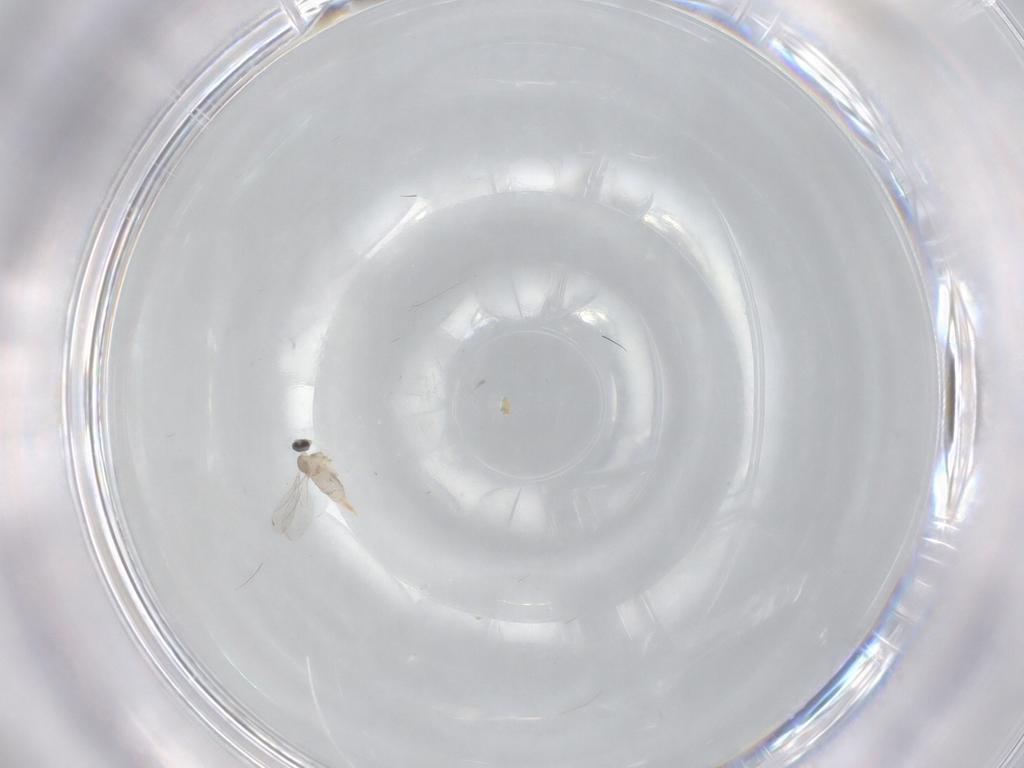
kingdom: Animalia
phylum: Arthropoda
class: Insecta
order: Diptera
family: Cecidomyiidae
